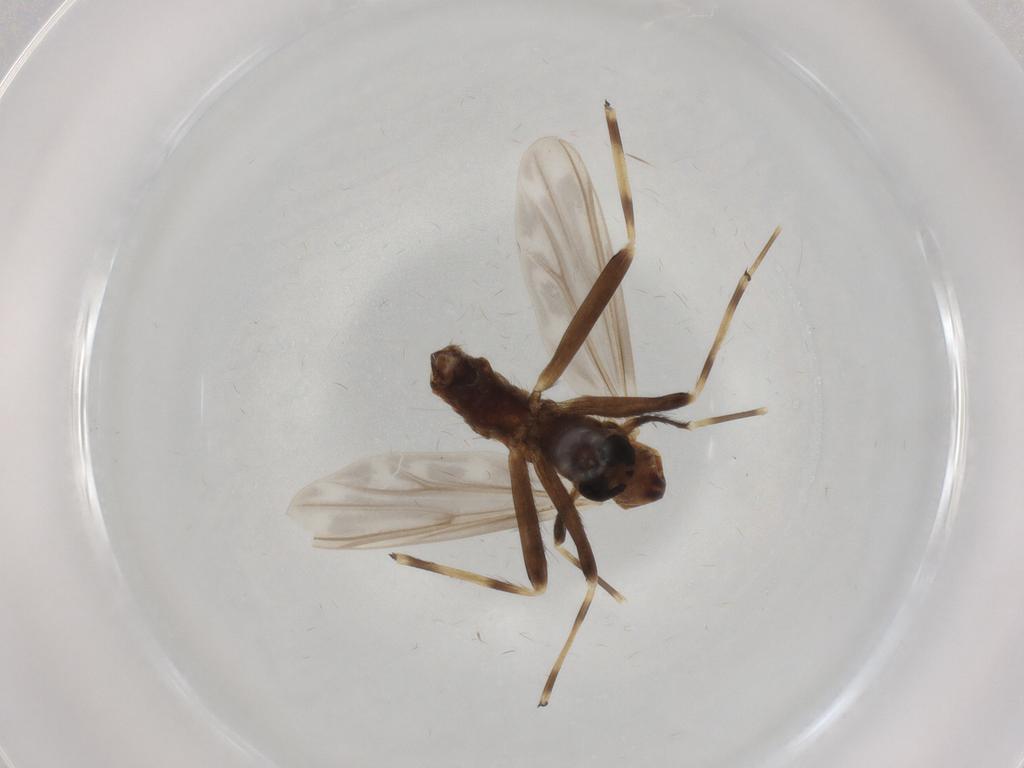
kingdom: Animalia
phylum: Arthropoda
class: Insecta
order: Diptera
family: Chironomidae
